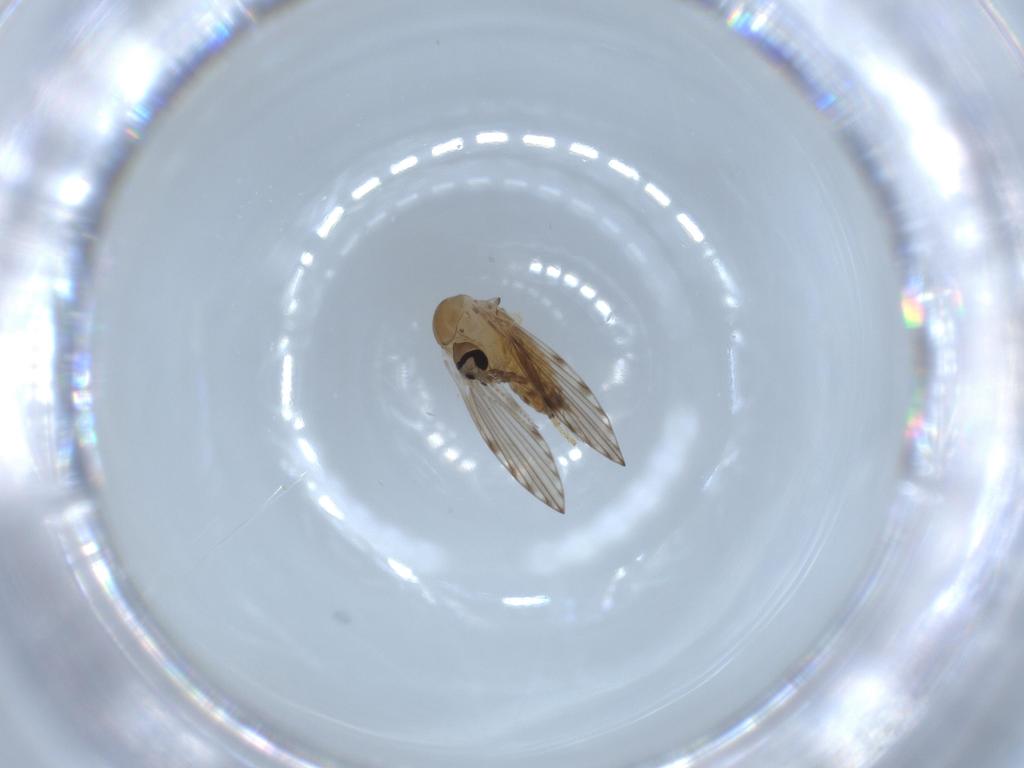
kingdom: Animalia
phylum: Arthropoda
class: Insecta
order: Diptera
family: Psychodidae
